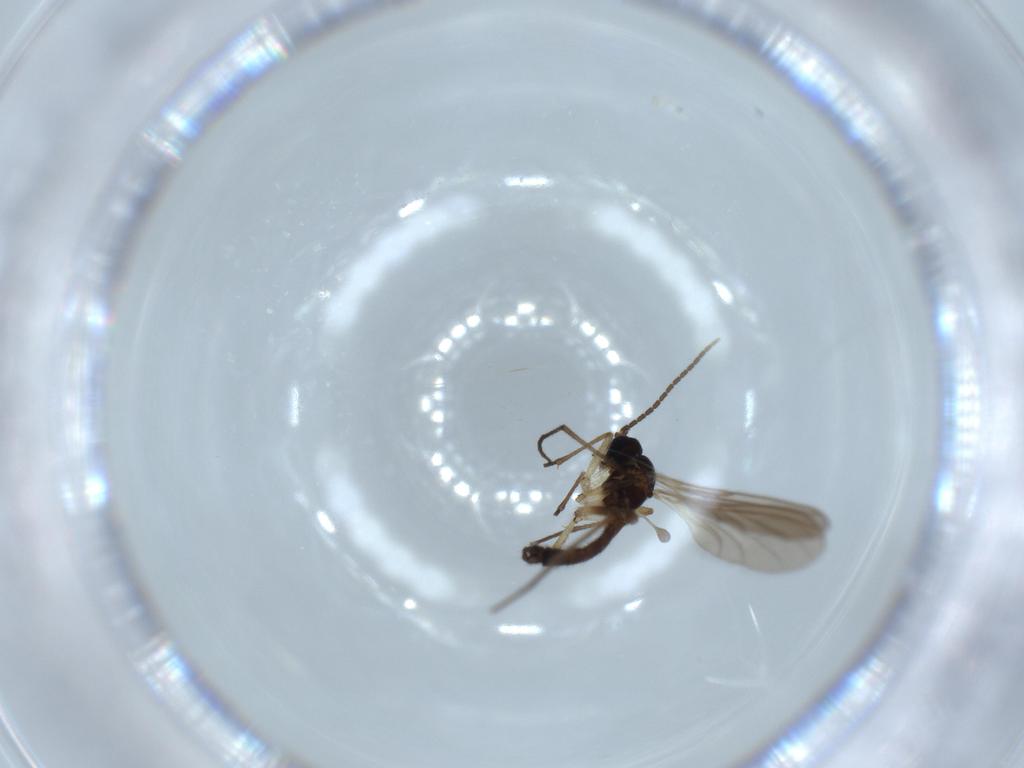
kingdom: Animalia
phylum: Arthropoda
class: Insecta
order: Diptera
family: Sciaridae
